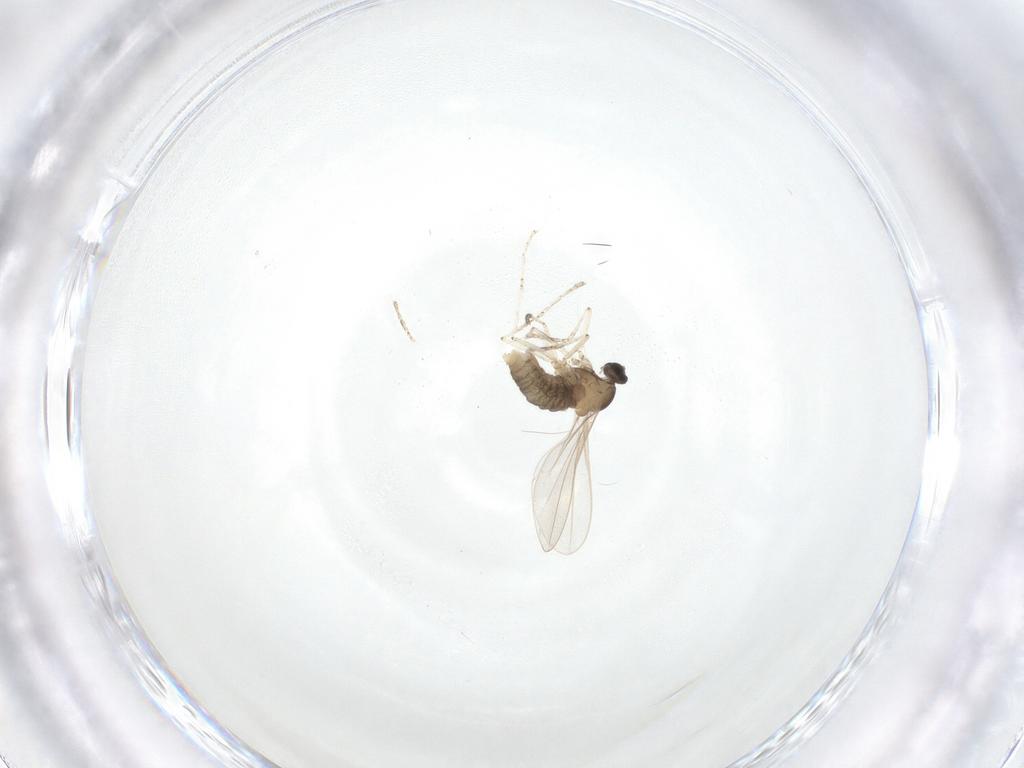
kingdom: Animalia
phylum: Arthropoda
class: Insecta
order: Diptera
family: Cecidomyiidae
